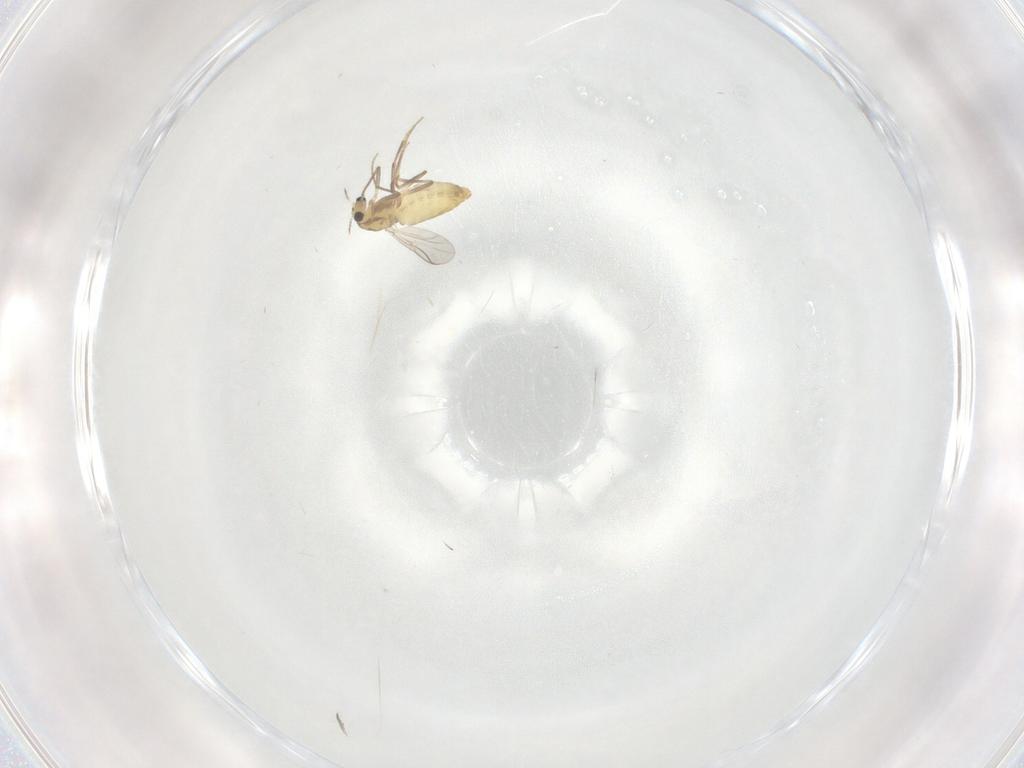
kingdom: Animalia
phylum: Arthropoda
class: Insecta
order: Diptera
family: Chironomidae
